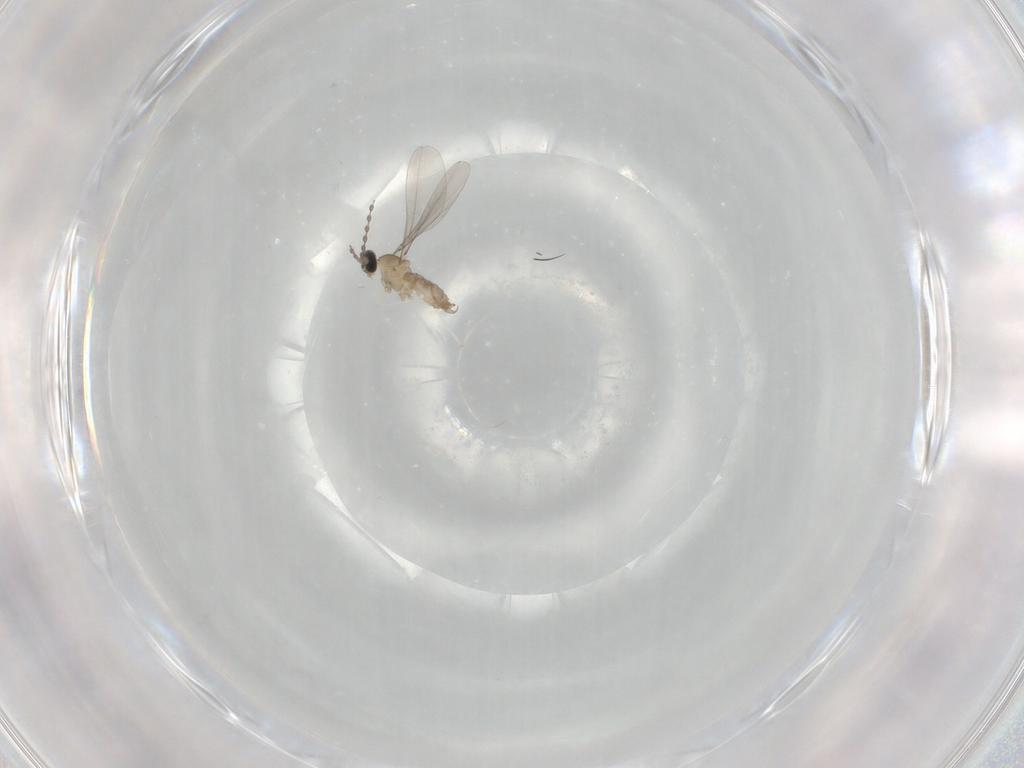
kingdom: Animalia
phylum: Arthropoda
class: Insecta
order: Diptera
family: Cecidomyiidae
